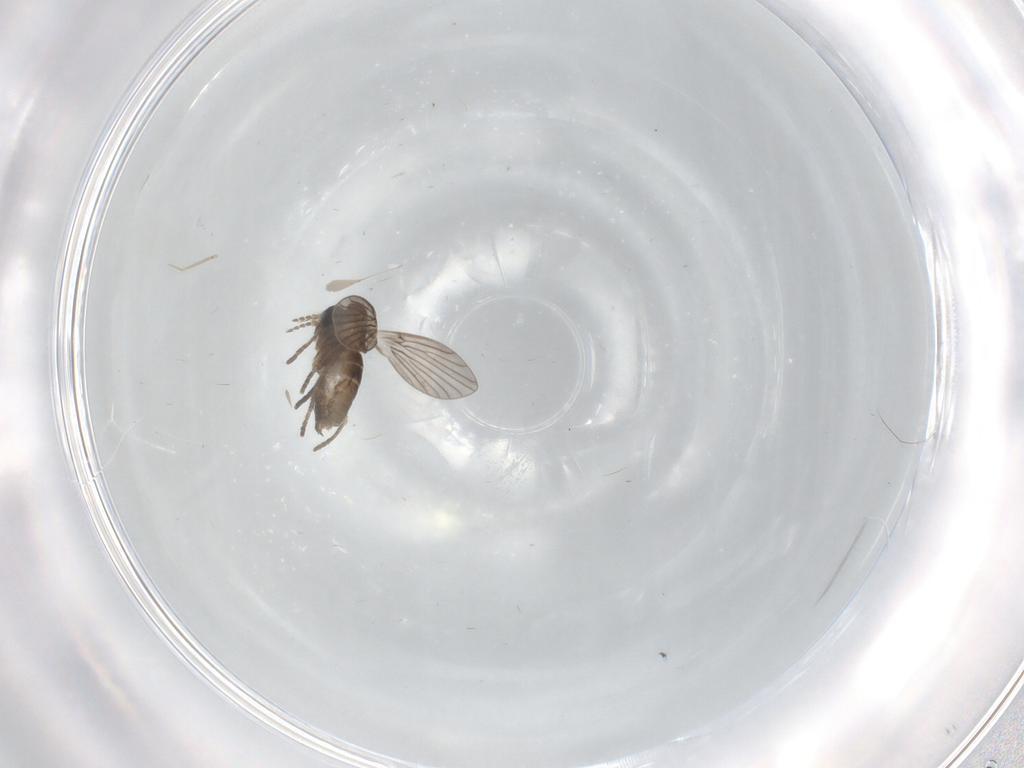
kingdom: Animalia
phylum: Arthropoda
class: Insecta
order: Diptera
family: Cecidomyiidae
